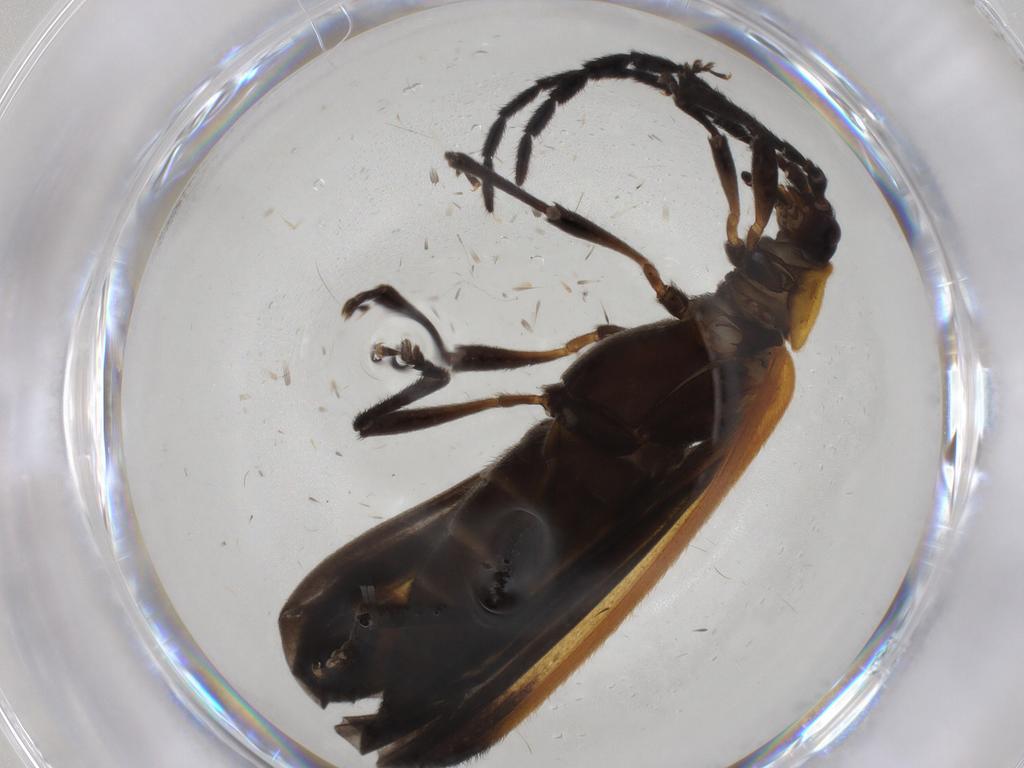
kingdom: Animalia
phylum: Arthropoda
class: Insecta
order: Coleoptera
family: Lycidae
